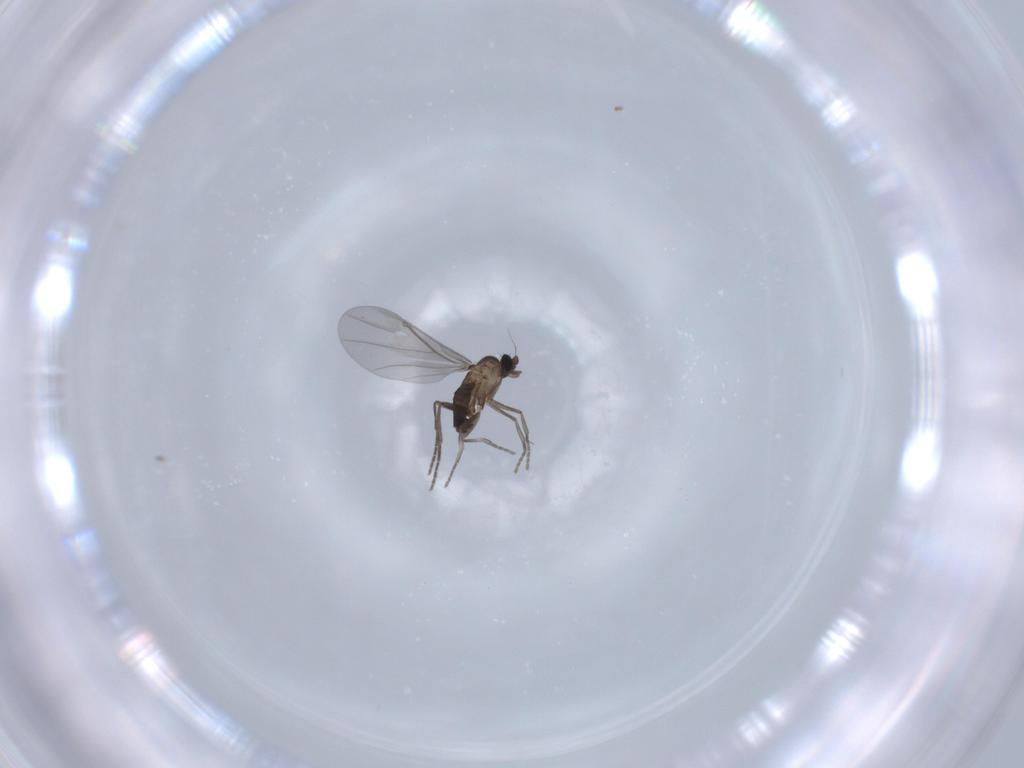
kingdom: Animalia
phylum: Arthropoda
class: Insecta
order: Diptera
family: Phoridae
